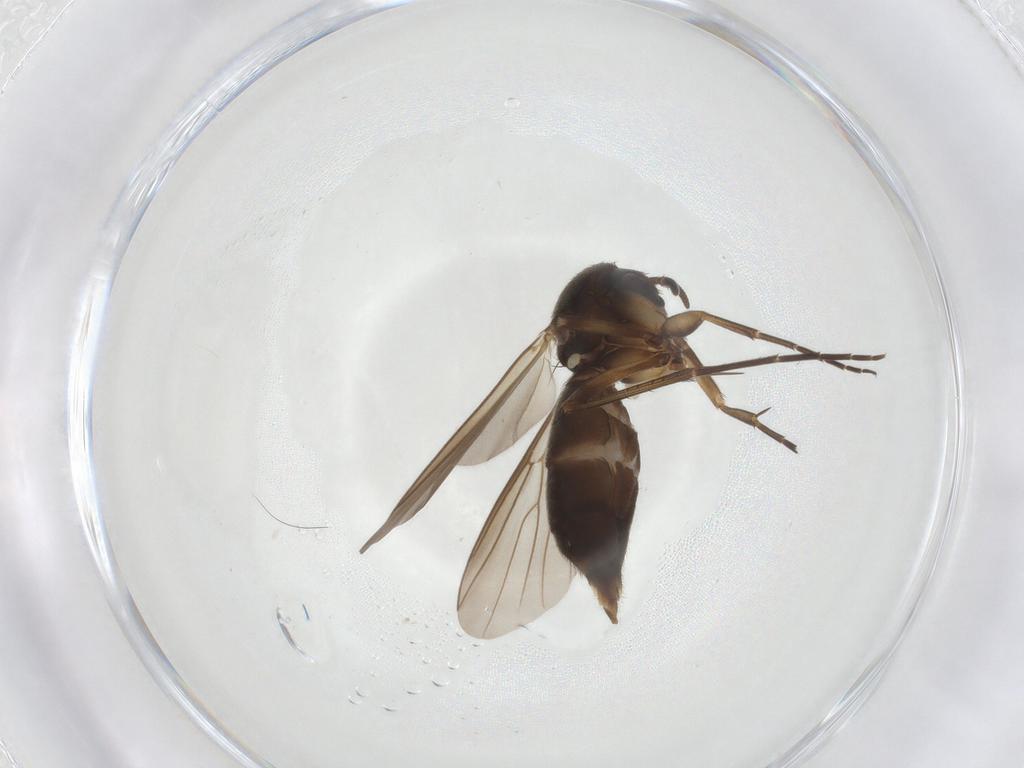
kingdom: Animalia
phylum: Arthropoda
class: Insecta
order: Diptera
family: Mycetophilidae
